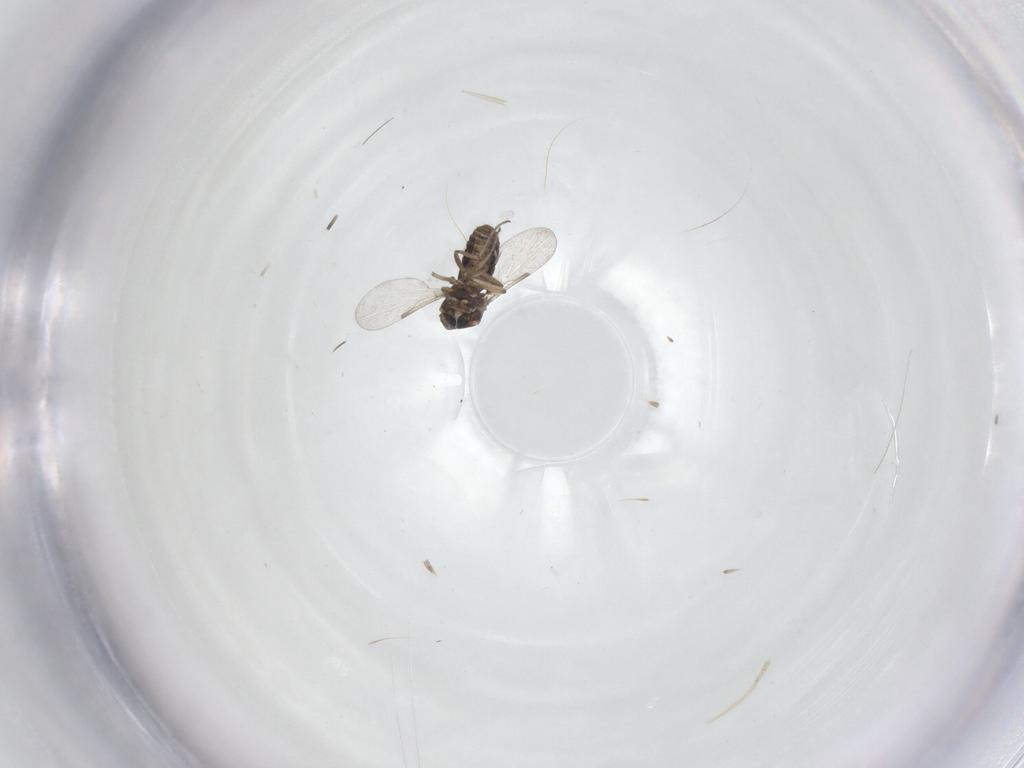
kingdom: Animalia
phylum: Arthropoda
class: Insecta
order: Diptera
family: Ceratopogonidae
